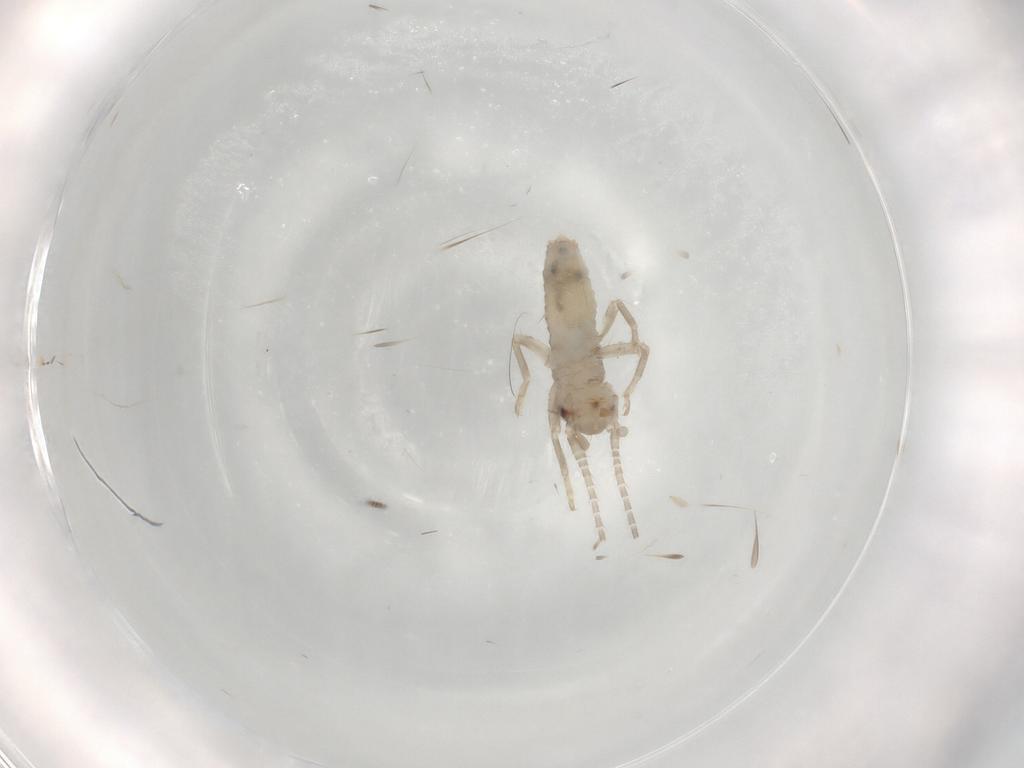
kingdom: Animalia
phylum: Arthropoda
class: Insecta
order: Orthoptera
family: Gryllidae
